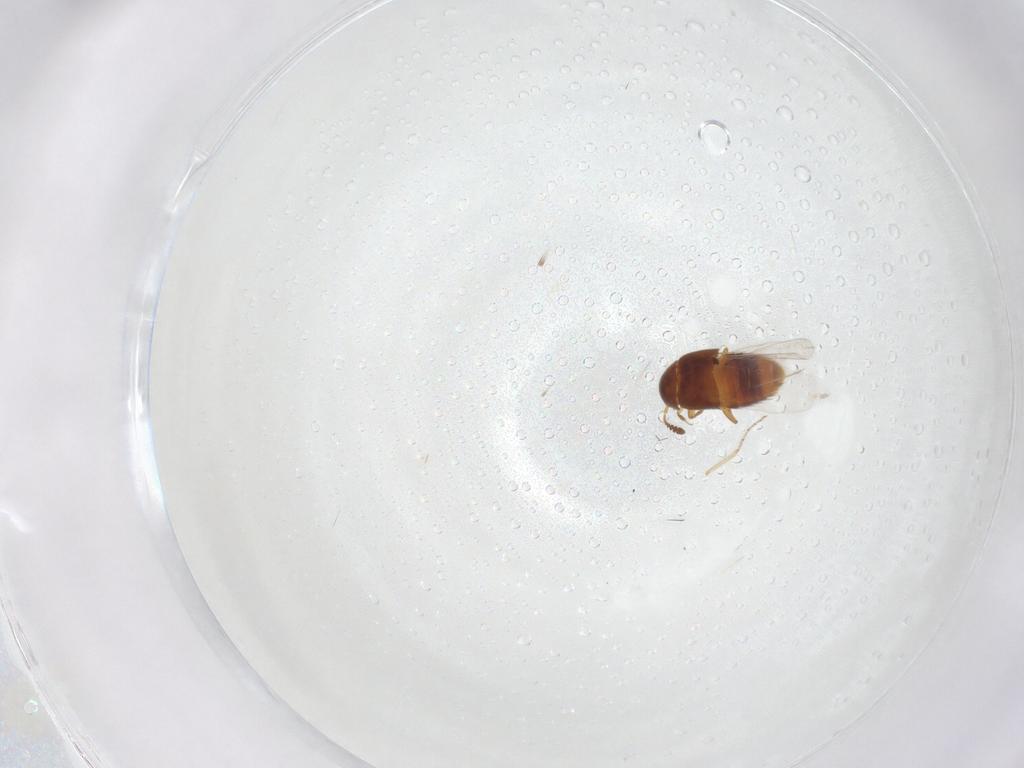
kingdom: Animalia
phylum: Arthropoda
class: Insecta
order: Coleoptera
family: Staphylinidae
